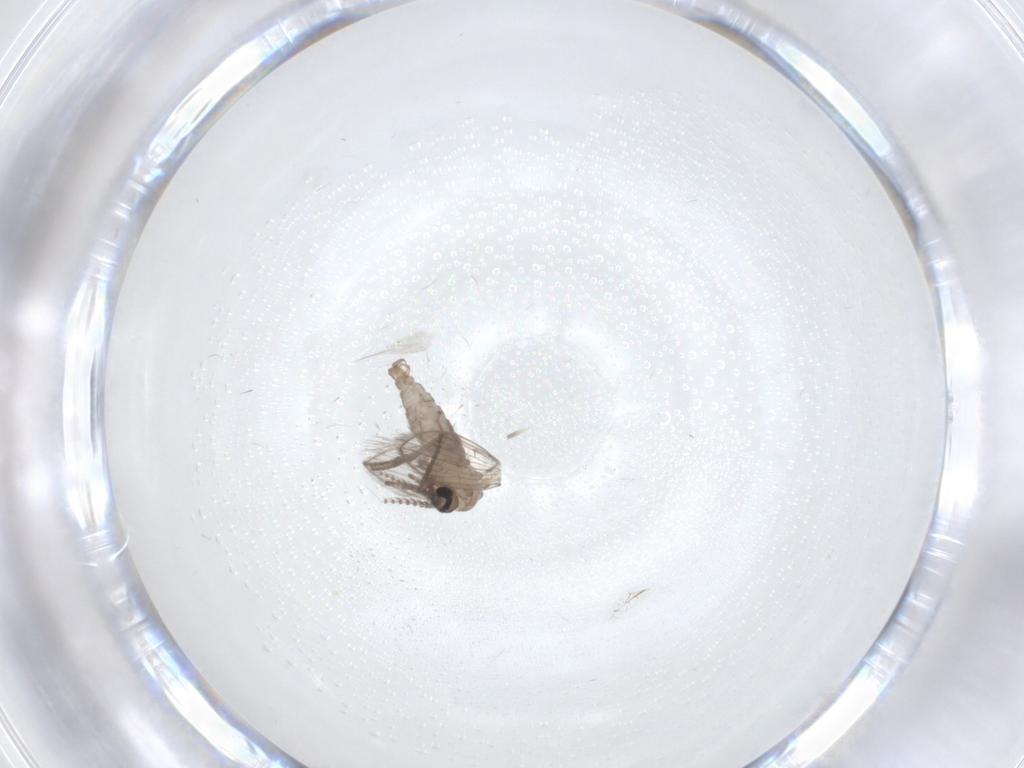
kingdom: Animalia
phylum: Arthropoda
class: Insecta
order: Diptera
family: Psychodidae
